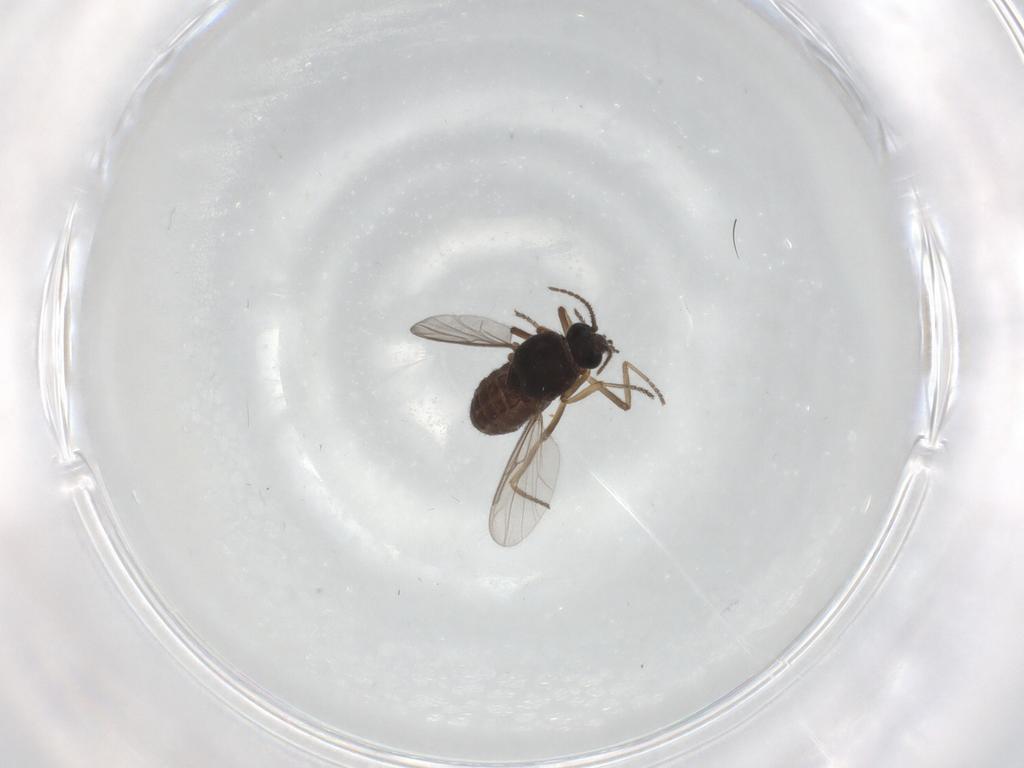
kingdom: Animalia
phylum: Arthropoda
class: Insecta
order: Diptera
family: Ceratopogonidae
